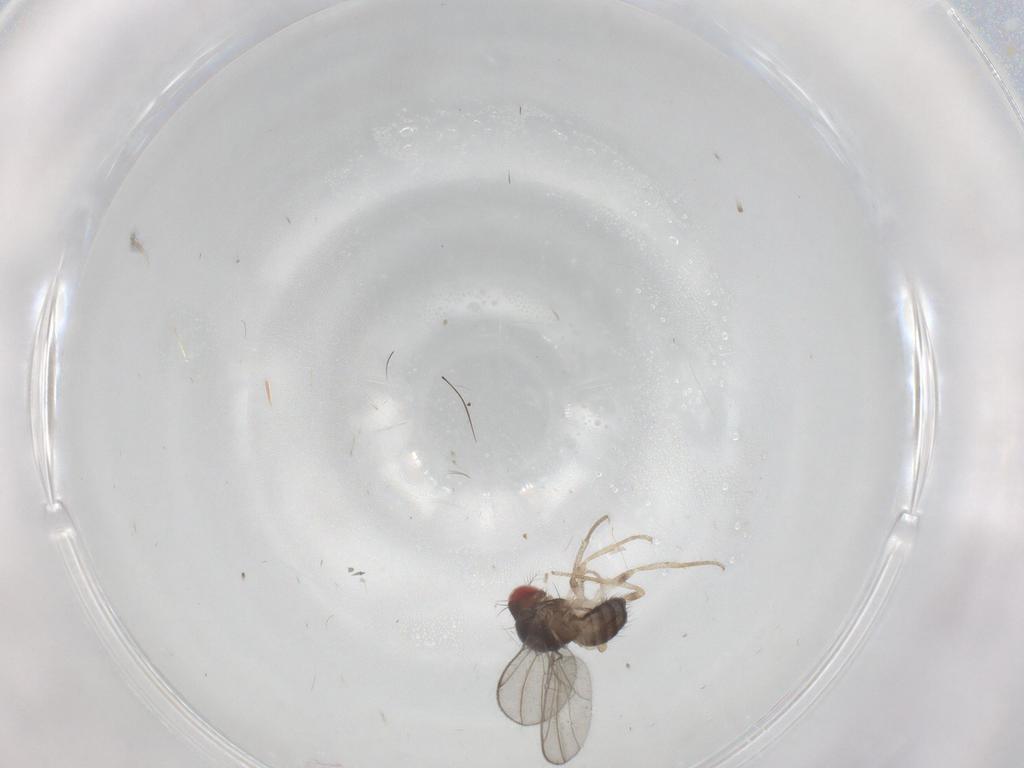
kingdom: Animalia
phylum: Arthropoda
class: Insecta
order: Diptera
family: Drosophilidae
